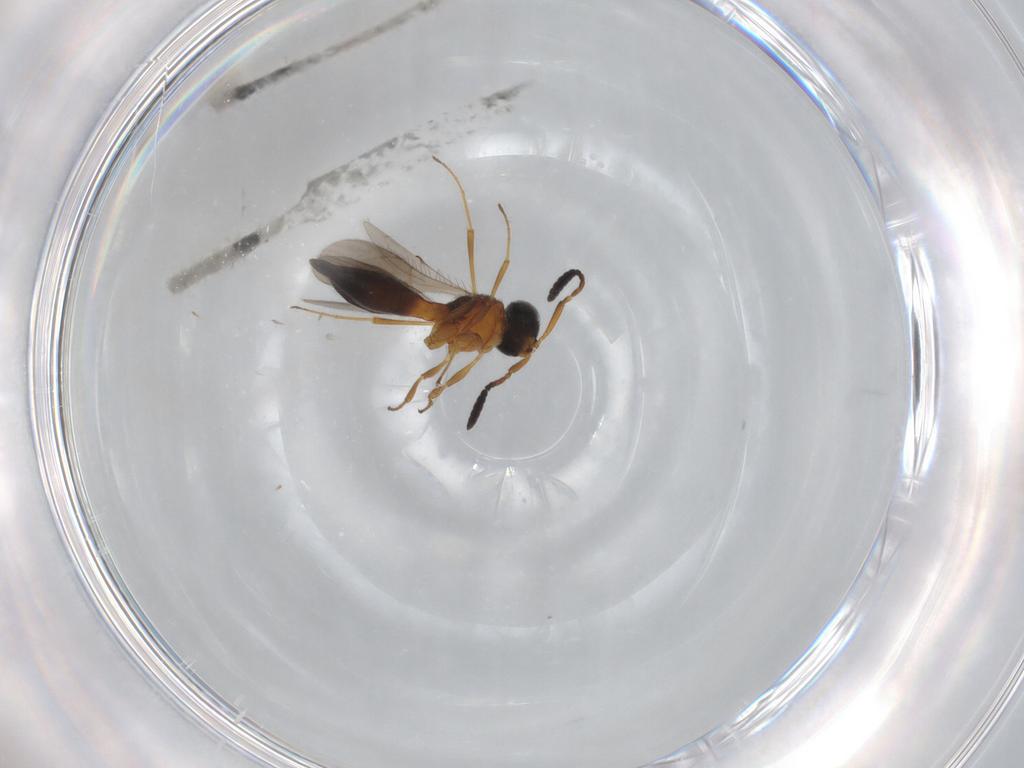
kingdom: Animalia
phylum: Arthropoda
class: Insecta
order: Hymenoptera
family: Scelionidae
